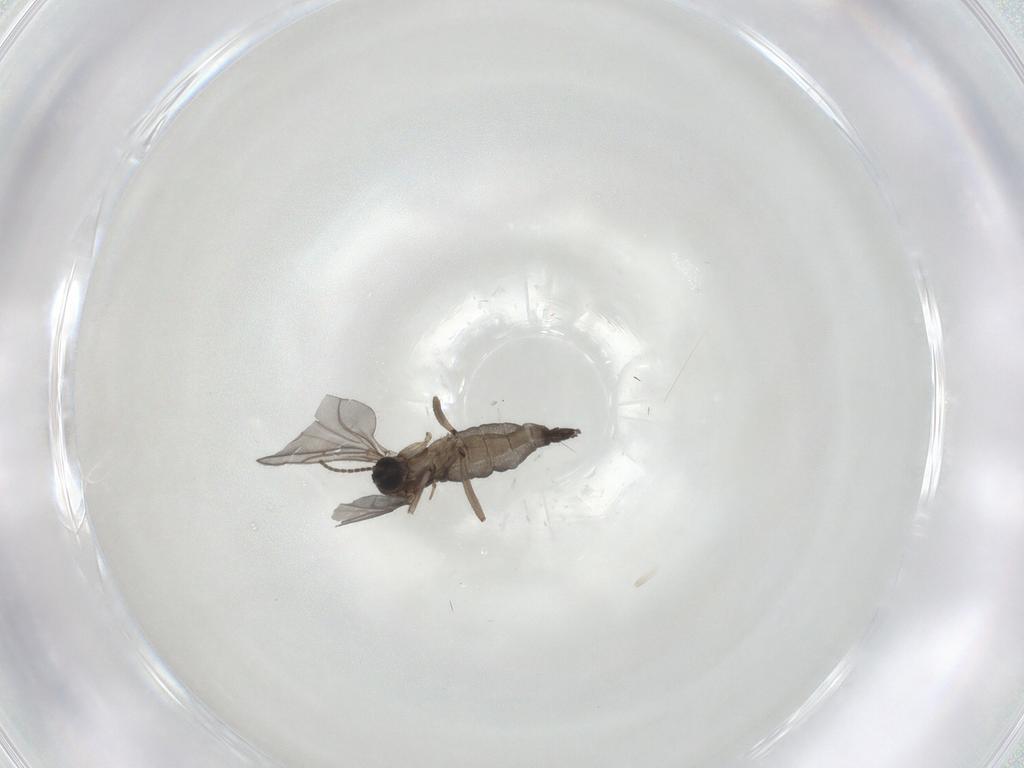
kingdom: Animalia
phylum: Arthropoda
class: Insecta
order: Diptera
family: Sciaridae
